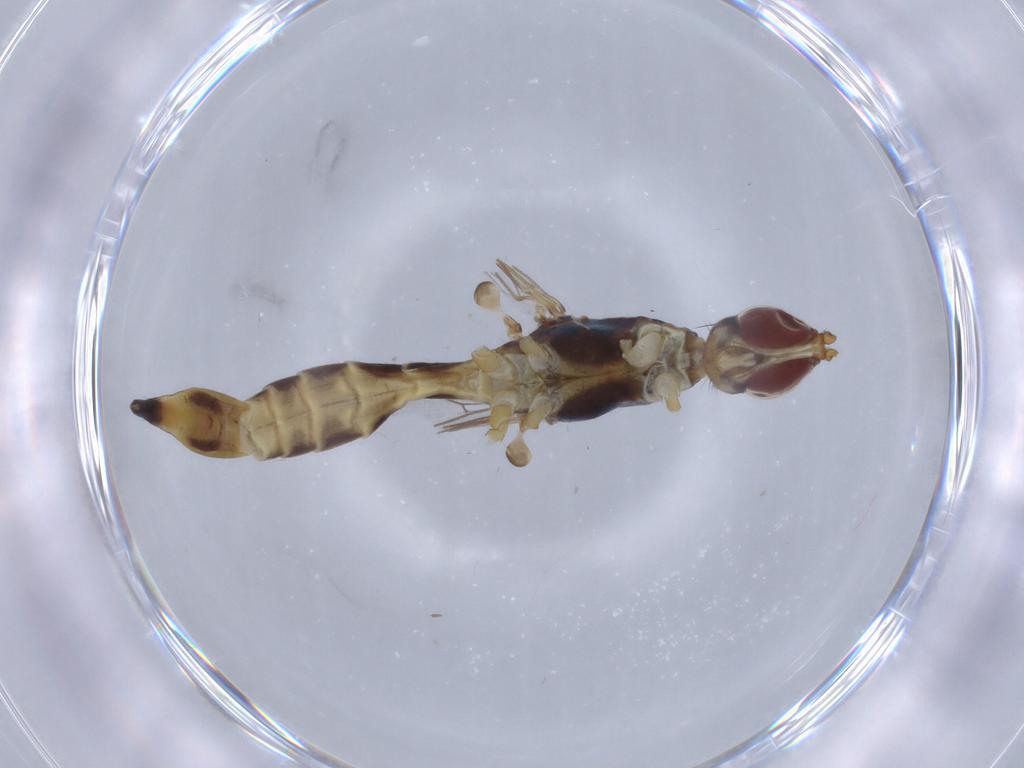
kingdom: Animalia
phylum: Arthropoda
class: Insecta
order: Diptera
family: Micropezidae
